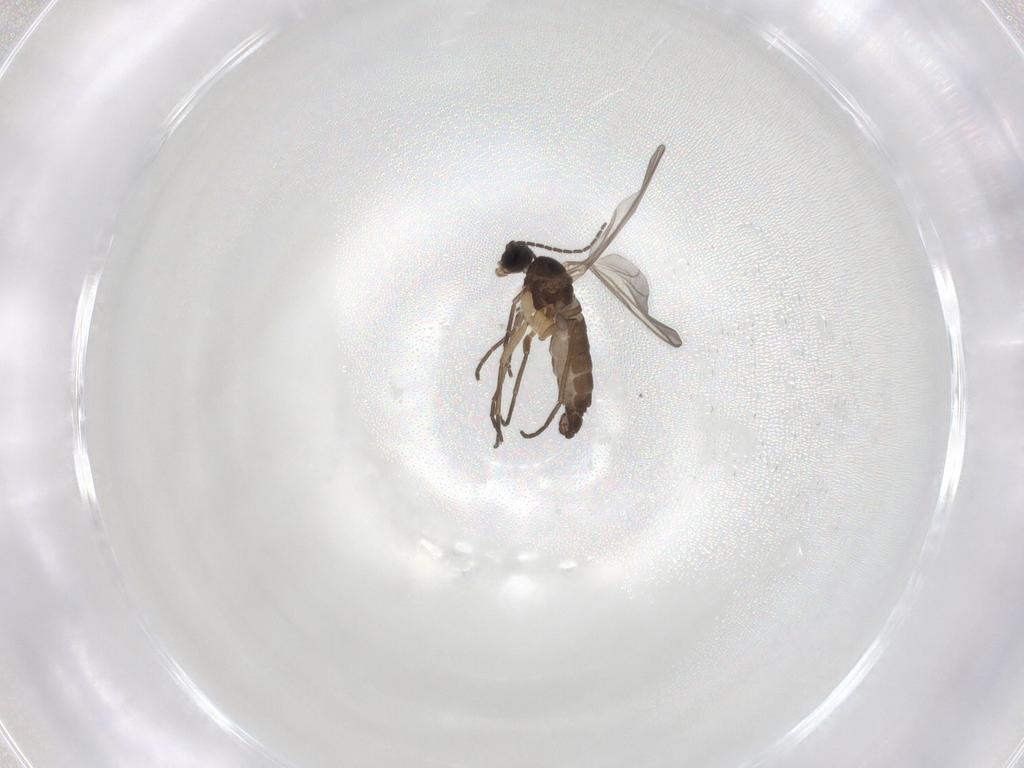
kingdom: Animalia
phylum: Arthropoda
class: Insecta
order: Diptera
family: Sciaridae
